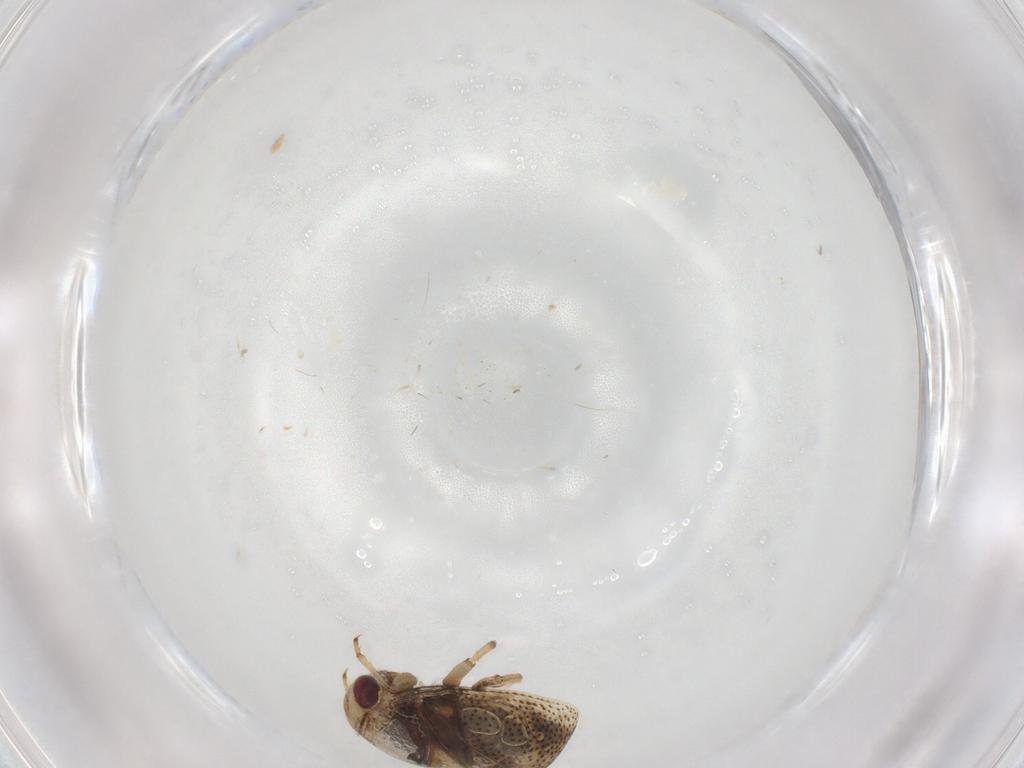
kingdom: Animalia
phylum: Arthropoda
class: Insecta
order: Hemiptera
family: Pleidae
